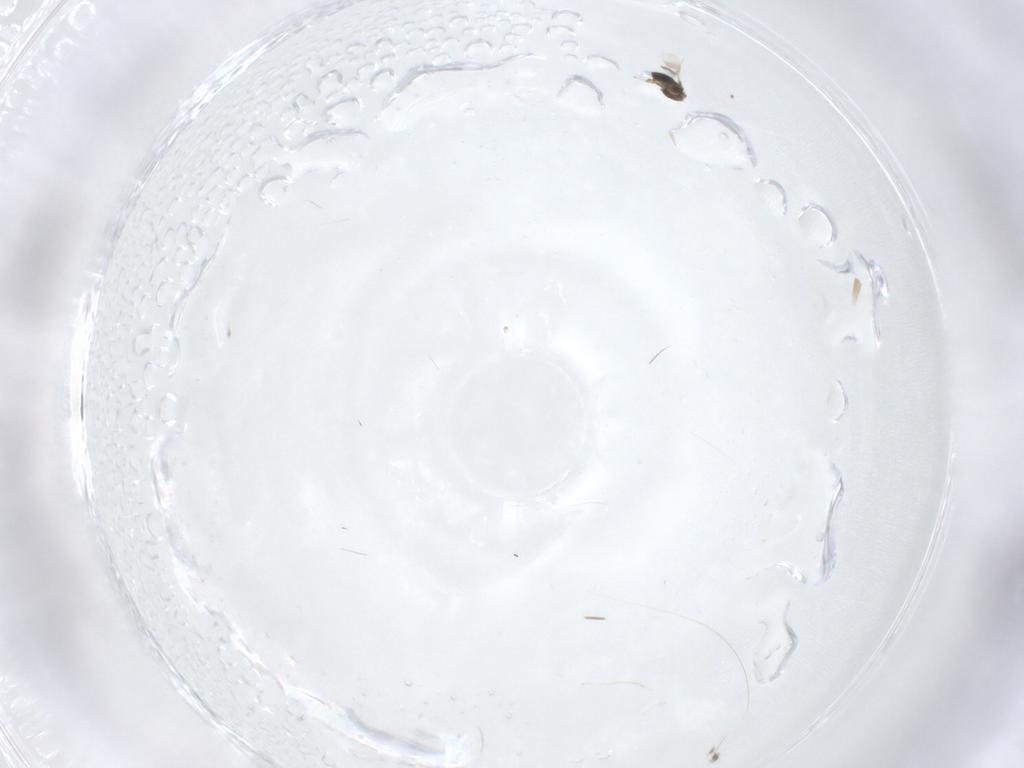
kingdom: Animalia
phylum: Arthropoda
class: Insecta
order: Hymenoptera
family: Platygastridae
